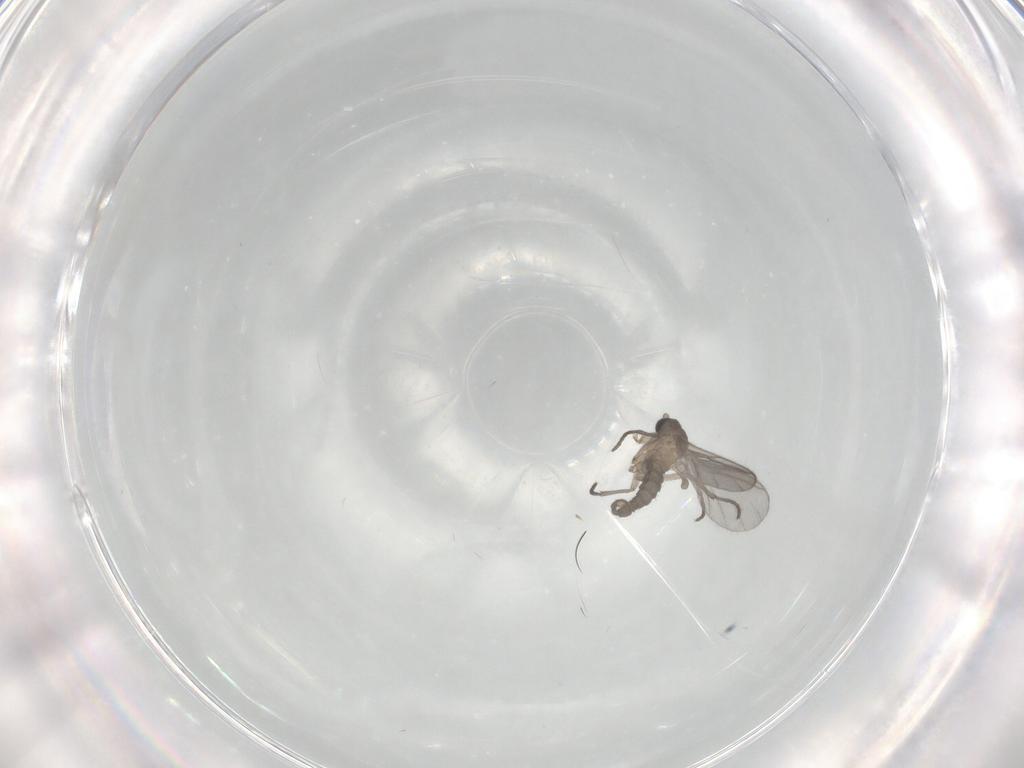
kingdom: Animalia
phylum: Arthropoda
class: Insecta
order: Diptera
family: Sciaridae
